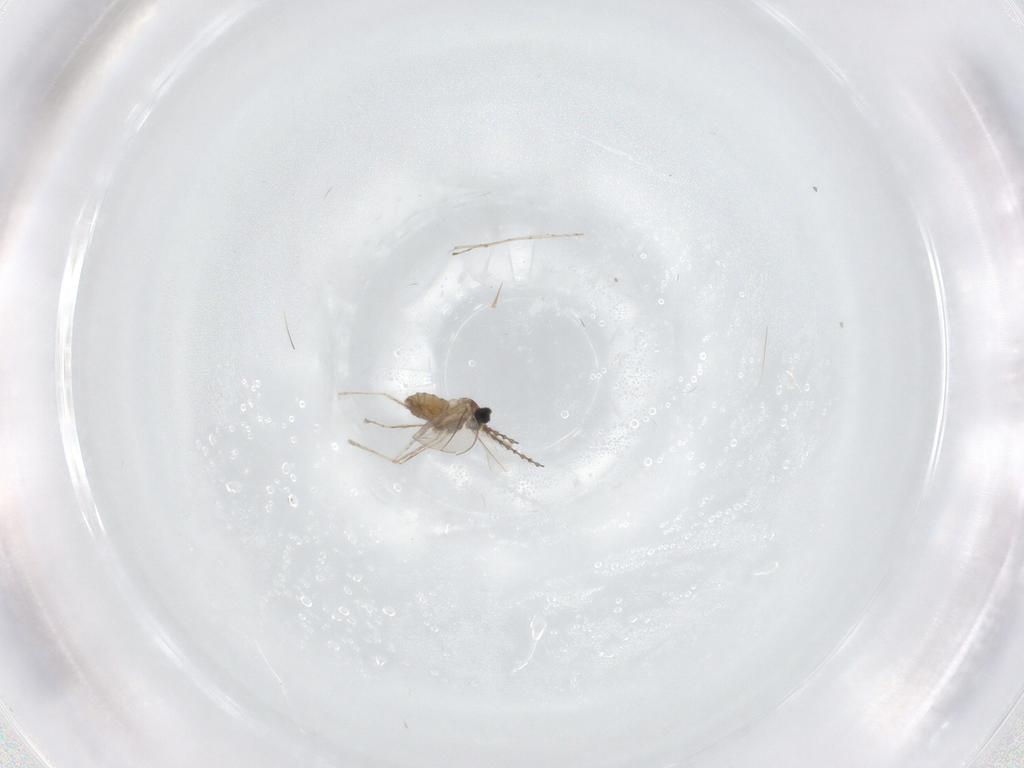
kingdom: Animalia
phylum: Arthropoda
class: Insecta
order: Diptera
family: Cecidomyiidae
